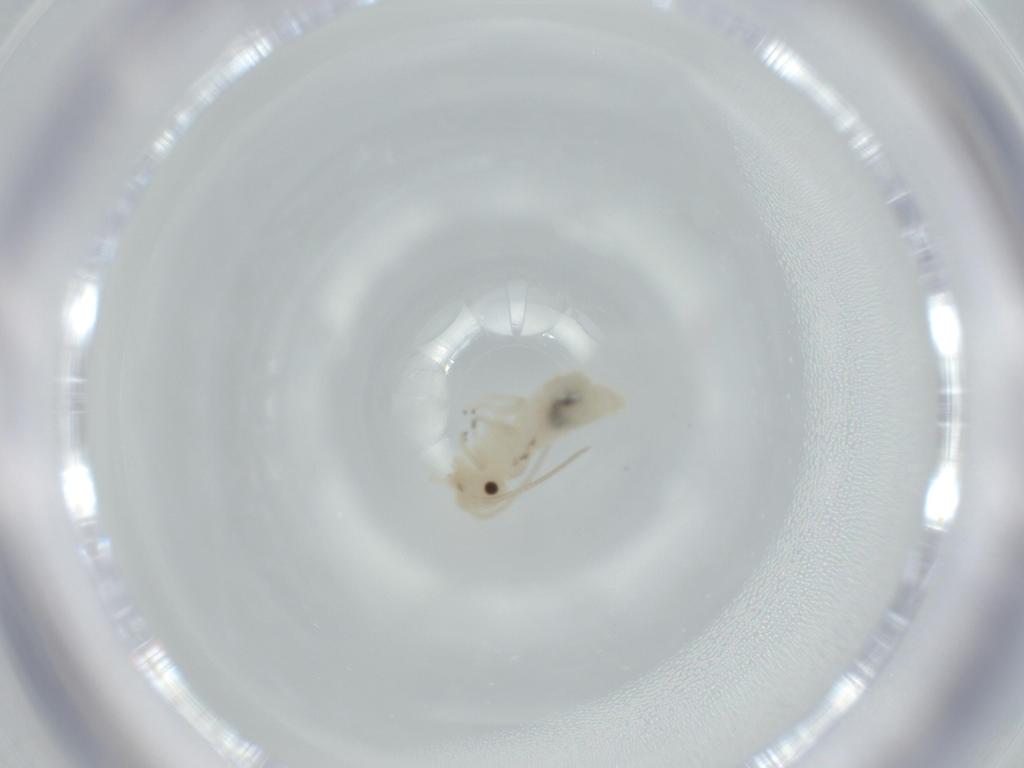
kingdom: Animalia
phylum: Arthropoda
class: Insecta
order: Psocodea
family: Caeciliusidae
